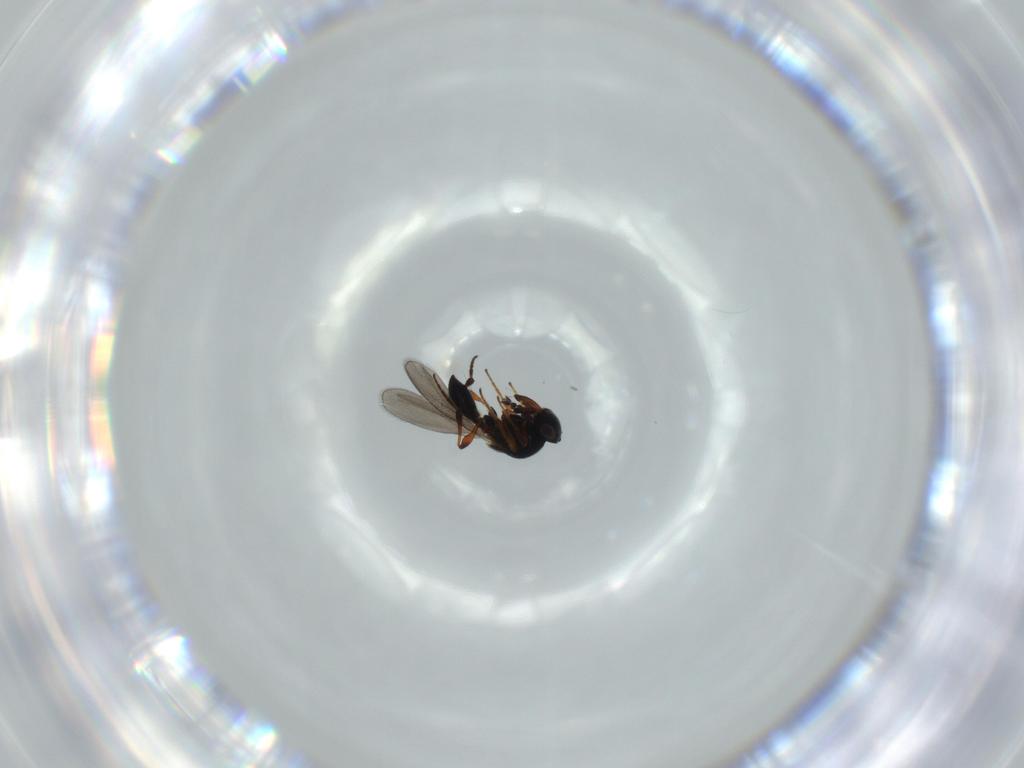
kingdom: Animalia
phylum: Arthropoda
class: Insecta
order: Hymenoptera
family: Platygastridae
